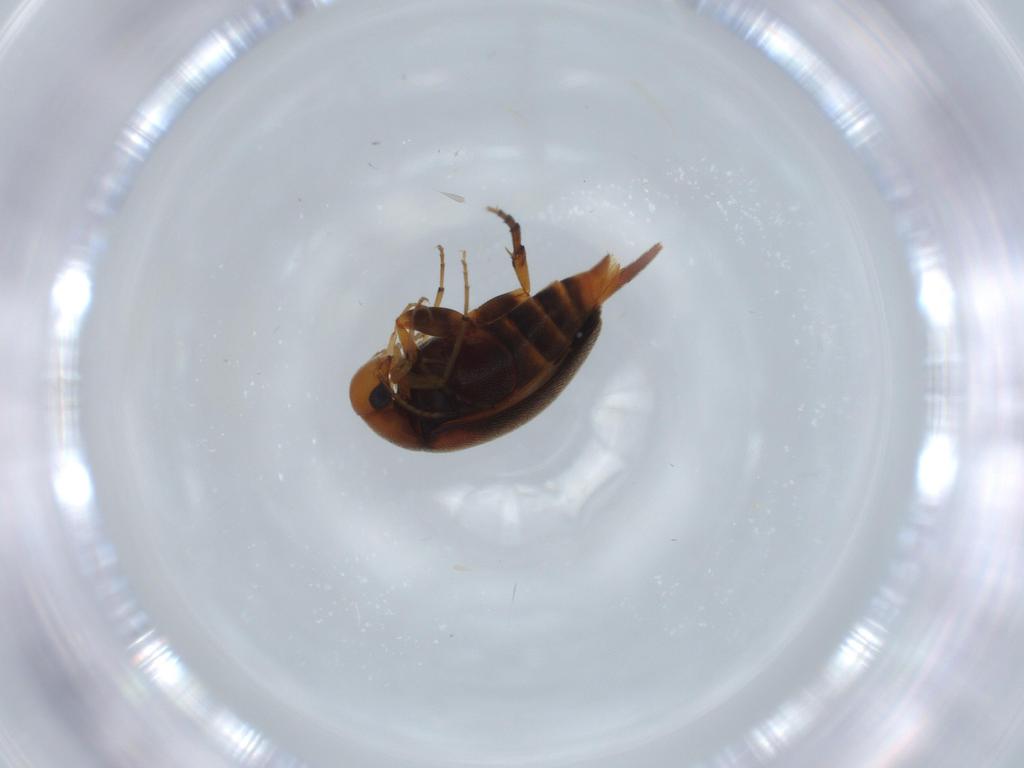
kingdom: Animalia
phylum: Arthropoda
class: Insecta
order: Coleoptera
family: Mordellidae
